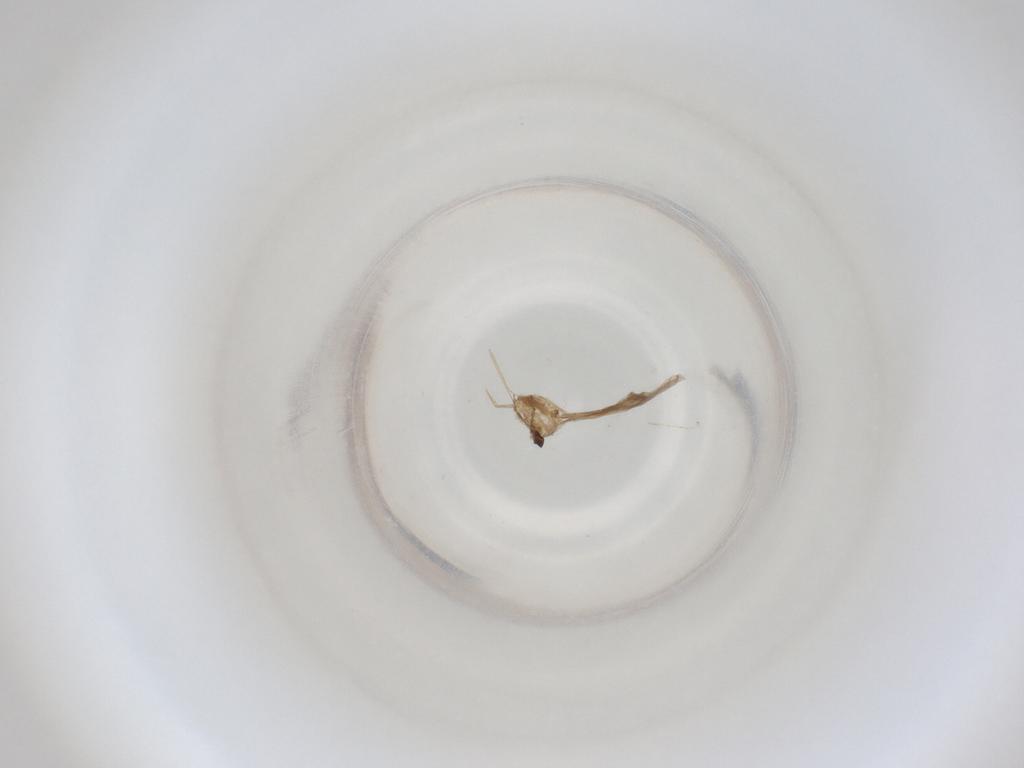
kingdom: Animalia
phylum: Arthropoda
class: Insecta
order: Diptera
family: Cecidomyiidae
